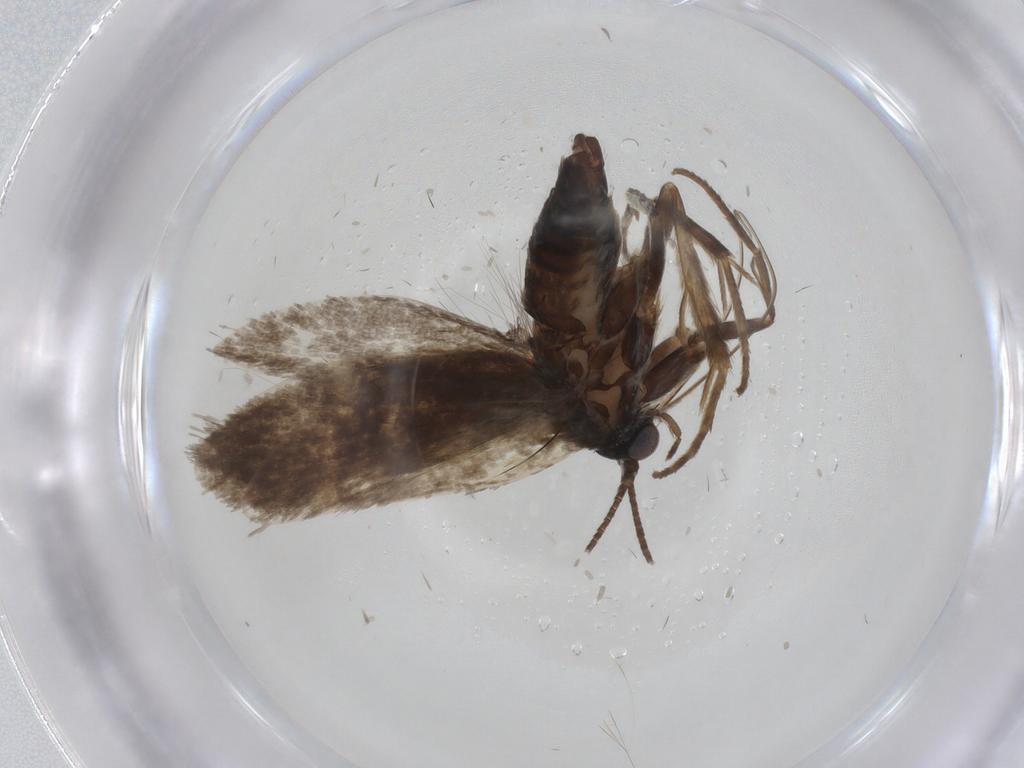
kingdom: Animalia
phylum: Arthropoda
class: Insecta
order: Lepidoptera
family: Adelidae
